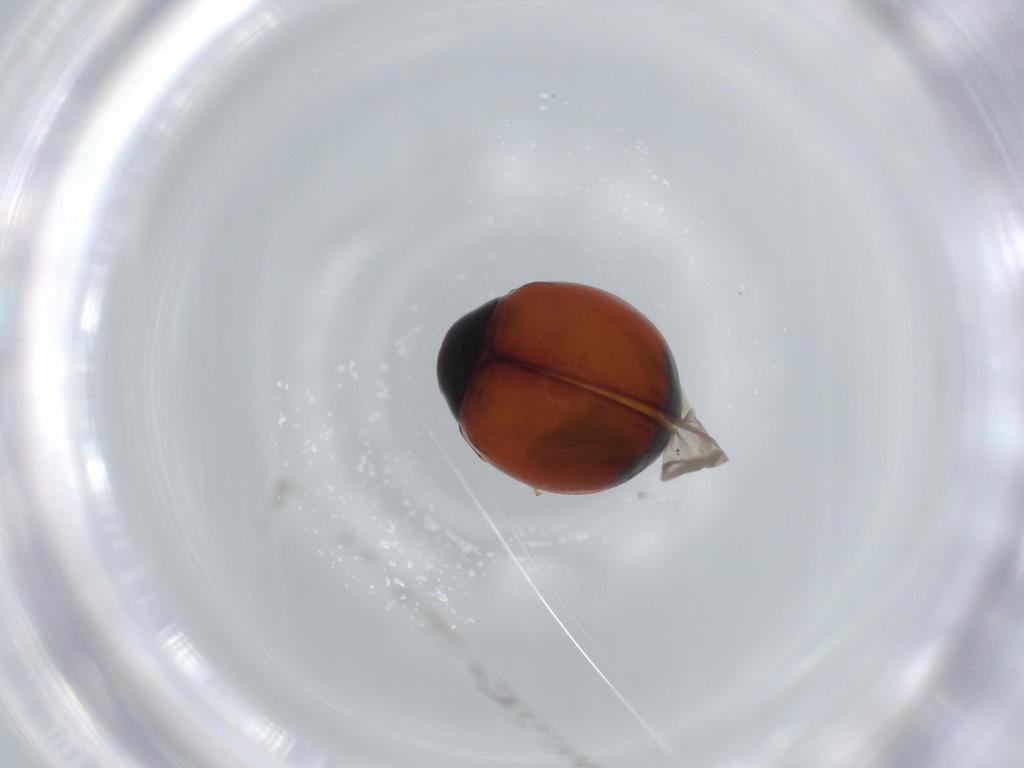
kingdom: Animalia
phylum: Arthropoda
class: Insecta
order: Coleoptera
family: Coccinellidae
